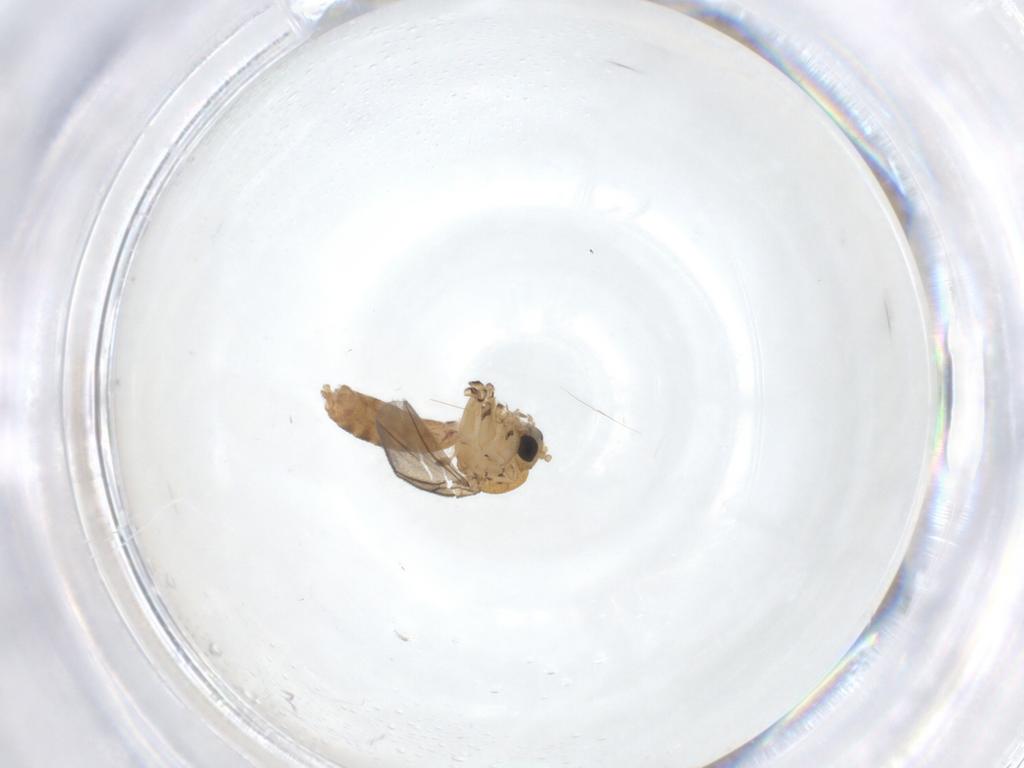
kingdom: Animalia
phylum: Arthropoda
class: Insecta
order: Diptera
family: Mycetophilidae
